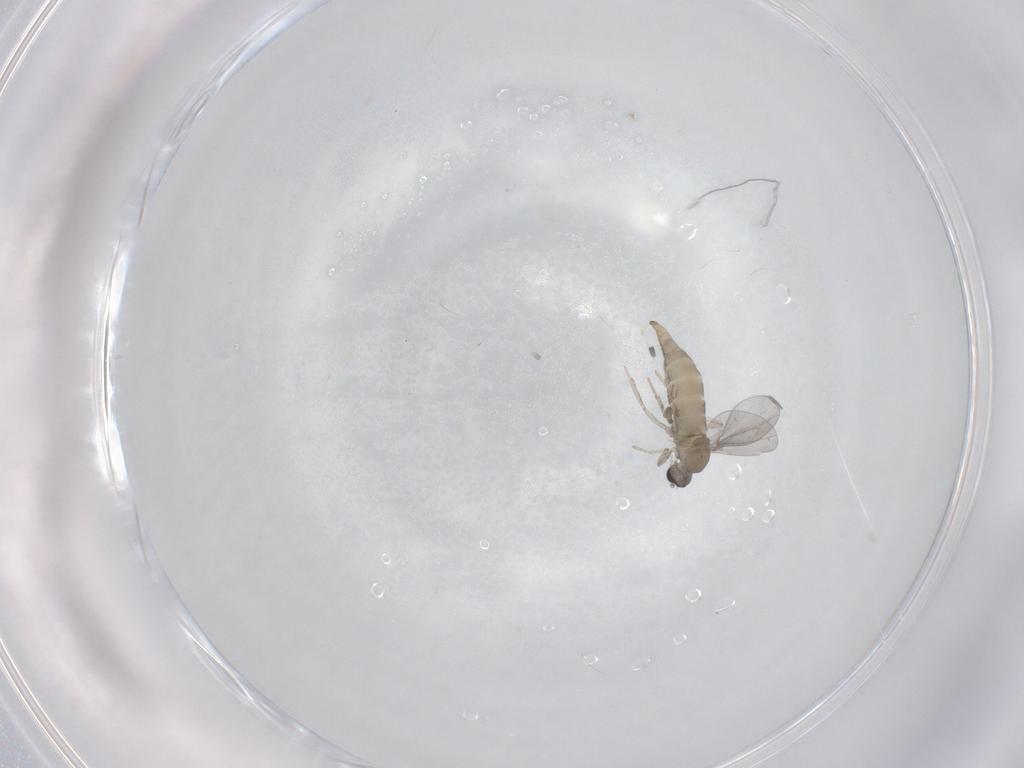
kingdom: Animalia
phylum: Arthropoda
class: Insecta
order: Diptera
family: Cecidomyiidae
